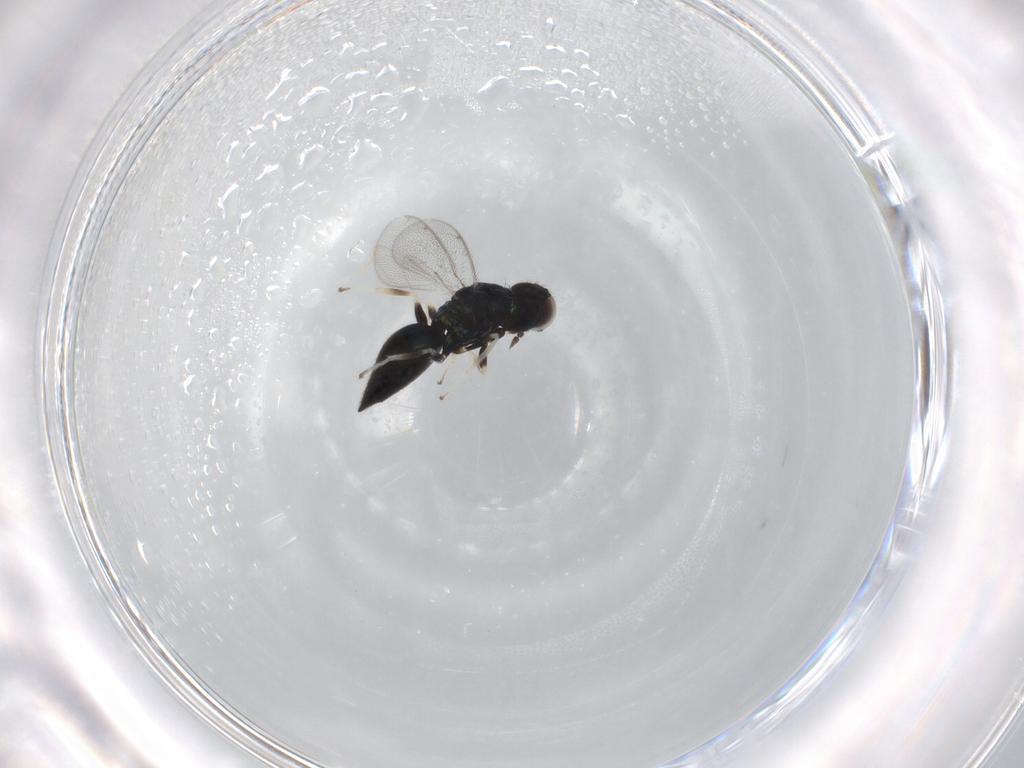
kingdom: Animalia
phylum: Arthropoda
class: Insecta
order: Hymenoptera
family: Eulophidae
